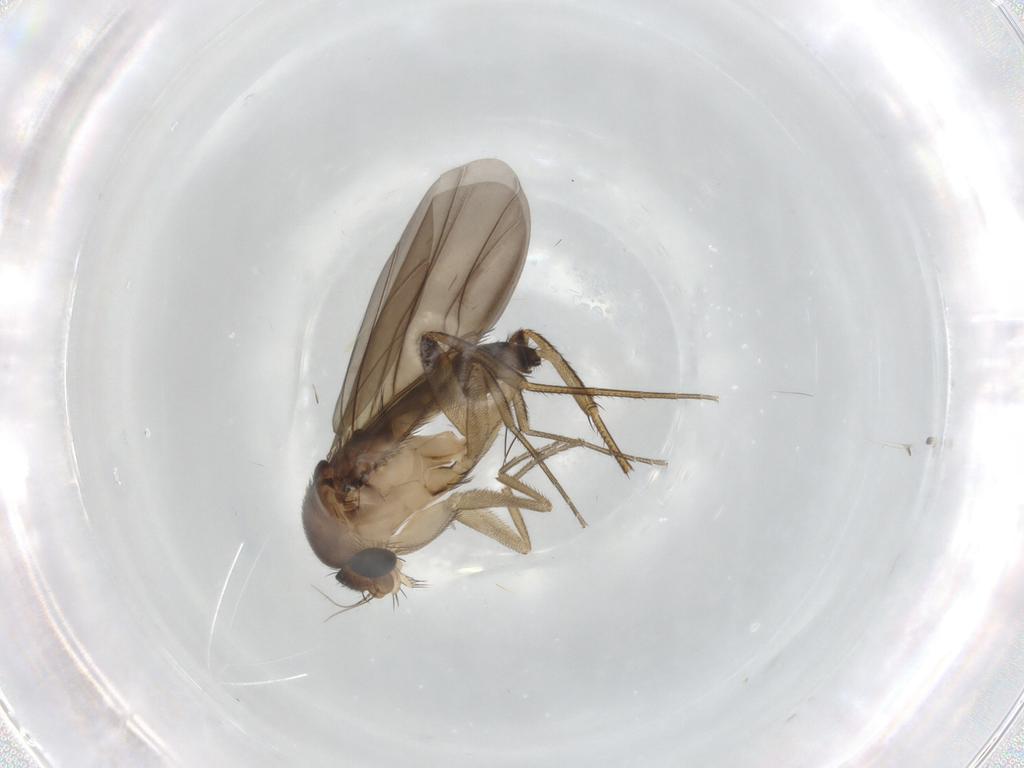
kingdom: Animalia
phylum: Arthropoda
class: Insecta
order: Diptera
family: Phoridae
